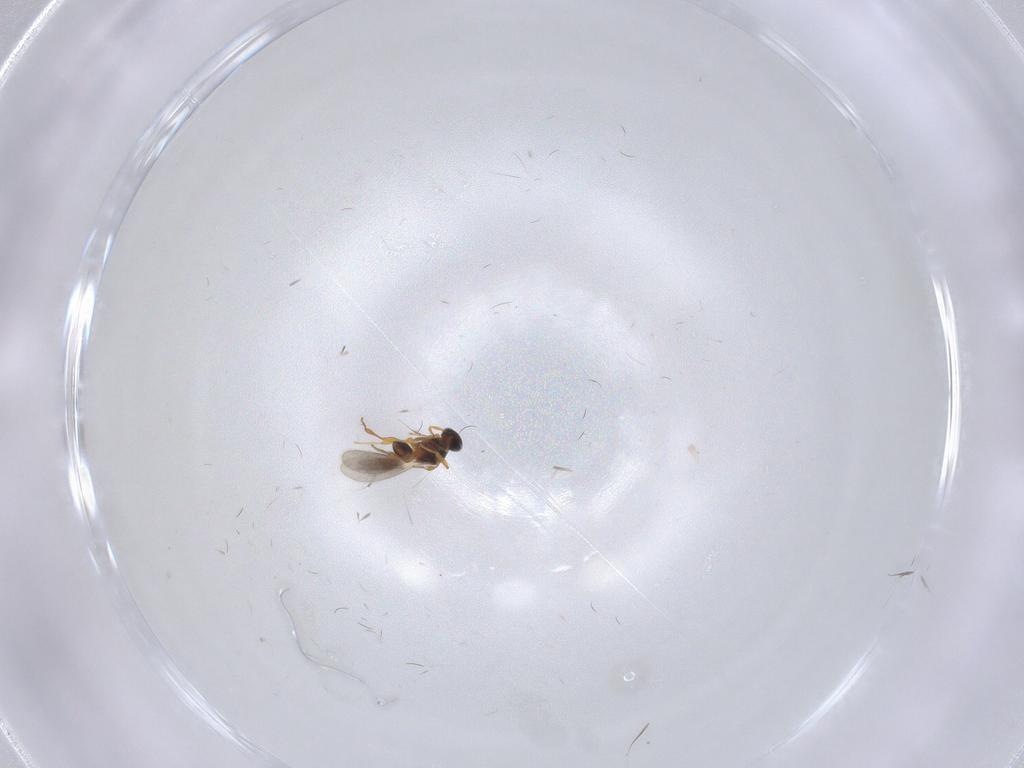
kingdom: Animalia
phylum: Arthropoda
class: Insecta
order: Hymenoptera
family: Platygastridae
